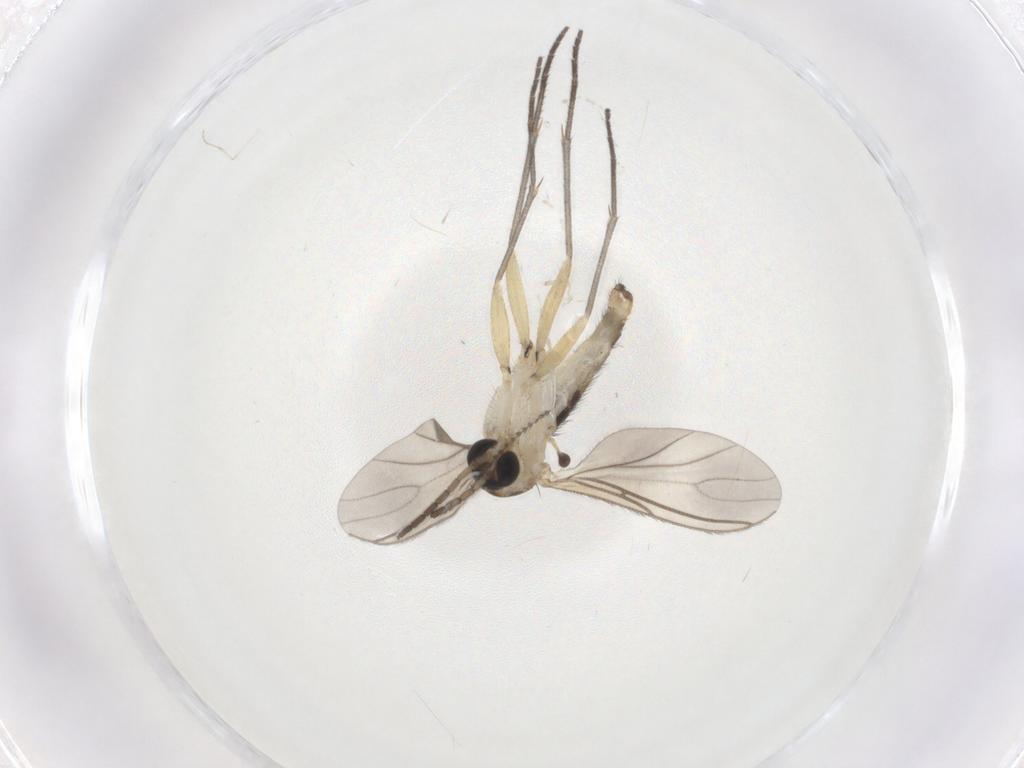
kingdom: Animalia
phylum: Arthropoda
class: Insecta
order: Diptera
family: Sciaridae
